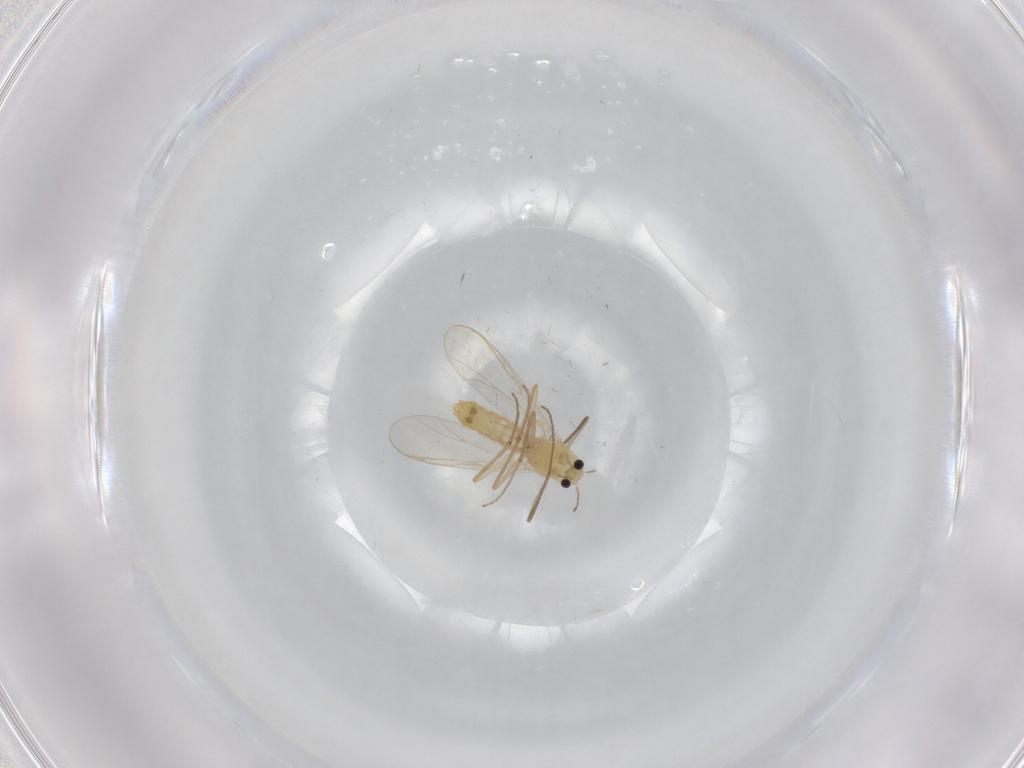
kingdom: Animalia
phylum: Arthropoda
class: Insecta
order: Diptera
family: Chironomidae
